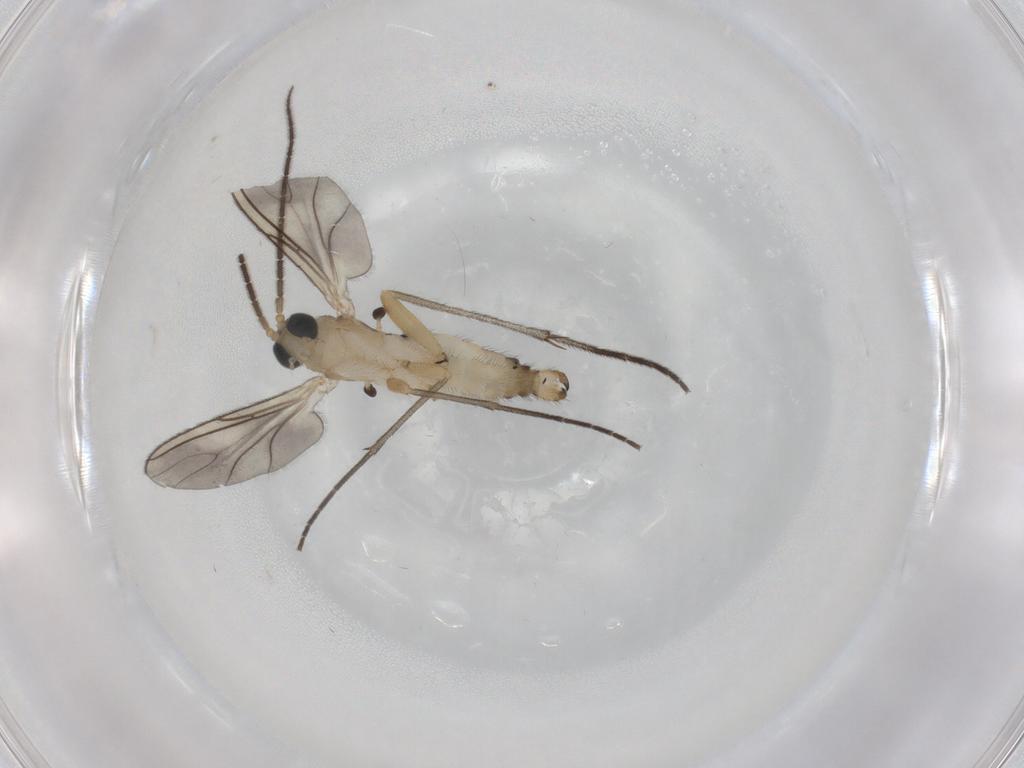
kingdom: Animalia
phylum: Arthropoda
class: Insecta
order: Diptera
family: Sciaridae
